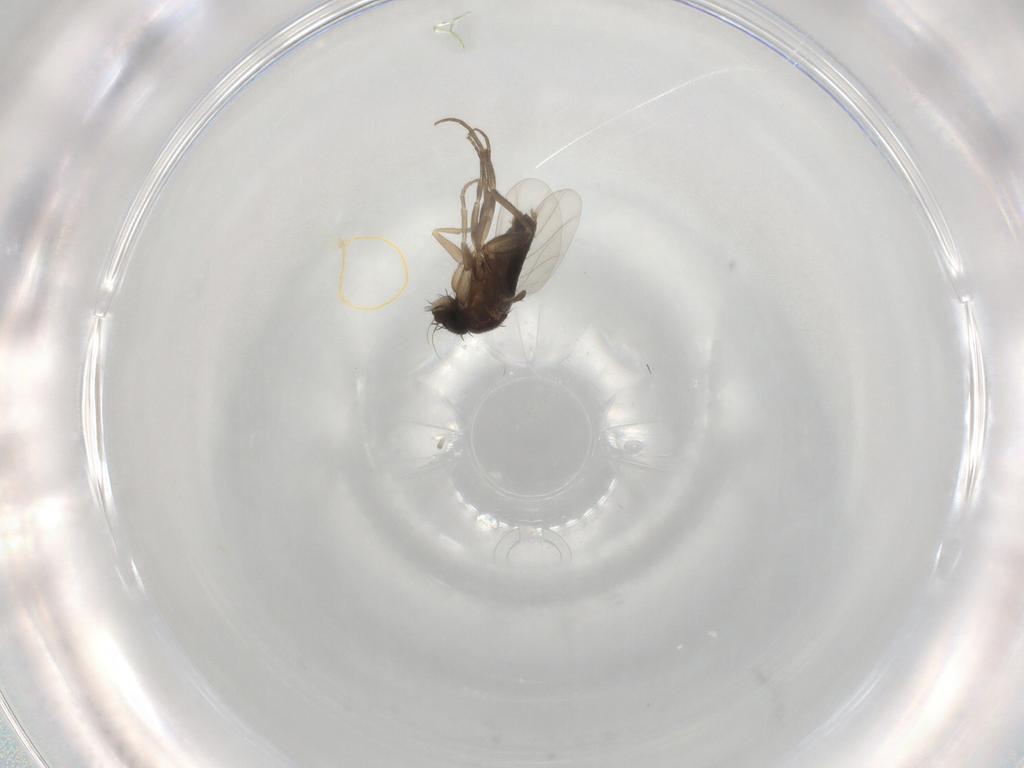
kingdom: Animalia
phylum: Arthropoda
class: Insecta
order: Diptera
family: Phoridae
